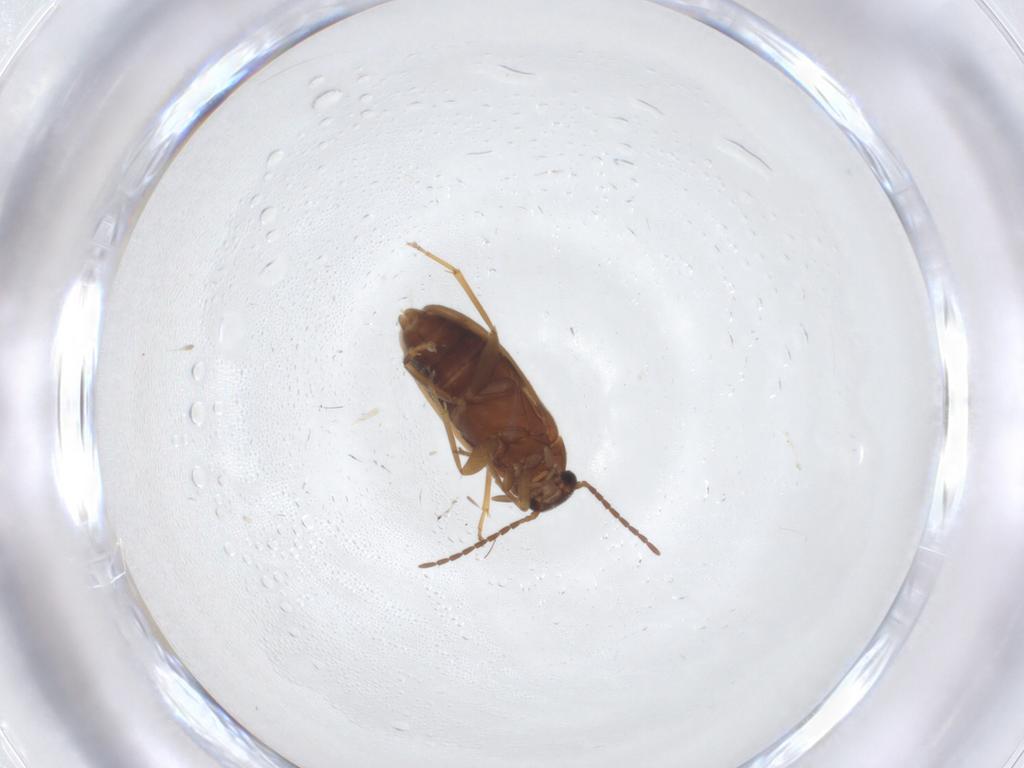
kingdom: Animalia
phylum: Arthropoda
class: Insecta
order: Coleoptera
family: Scraptiidae
